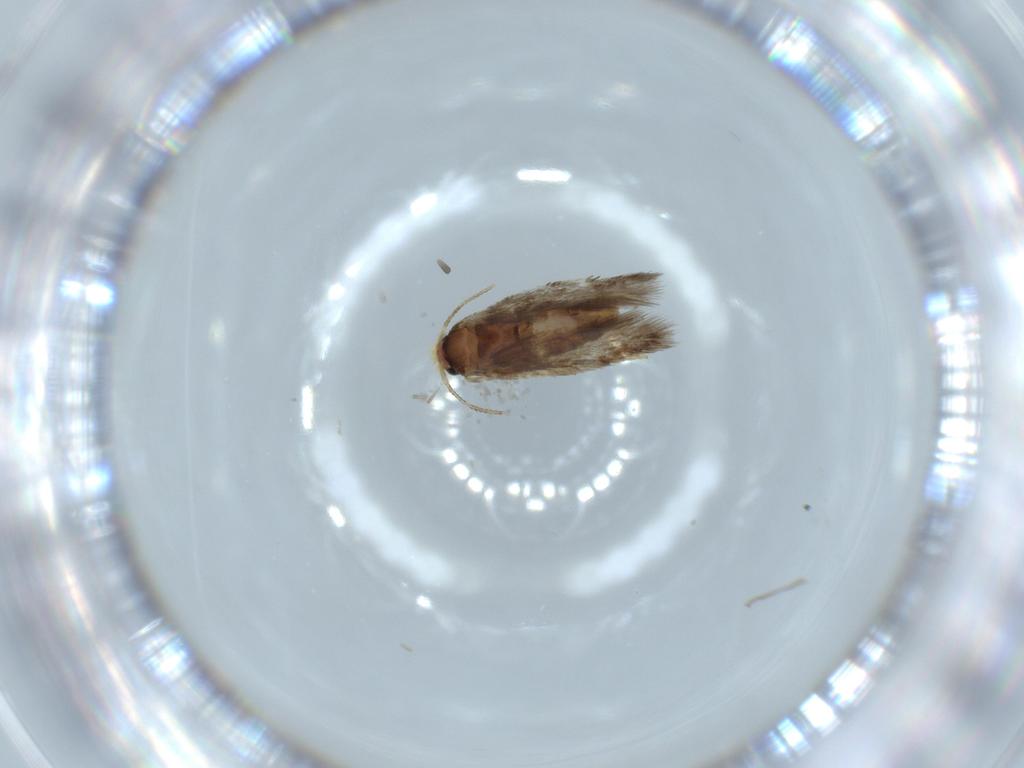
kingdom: Animalia
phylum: Arthropoda
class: Insecta
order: Lepidoptera
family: Nepticulidae
